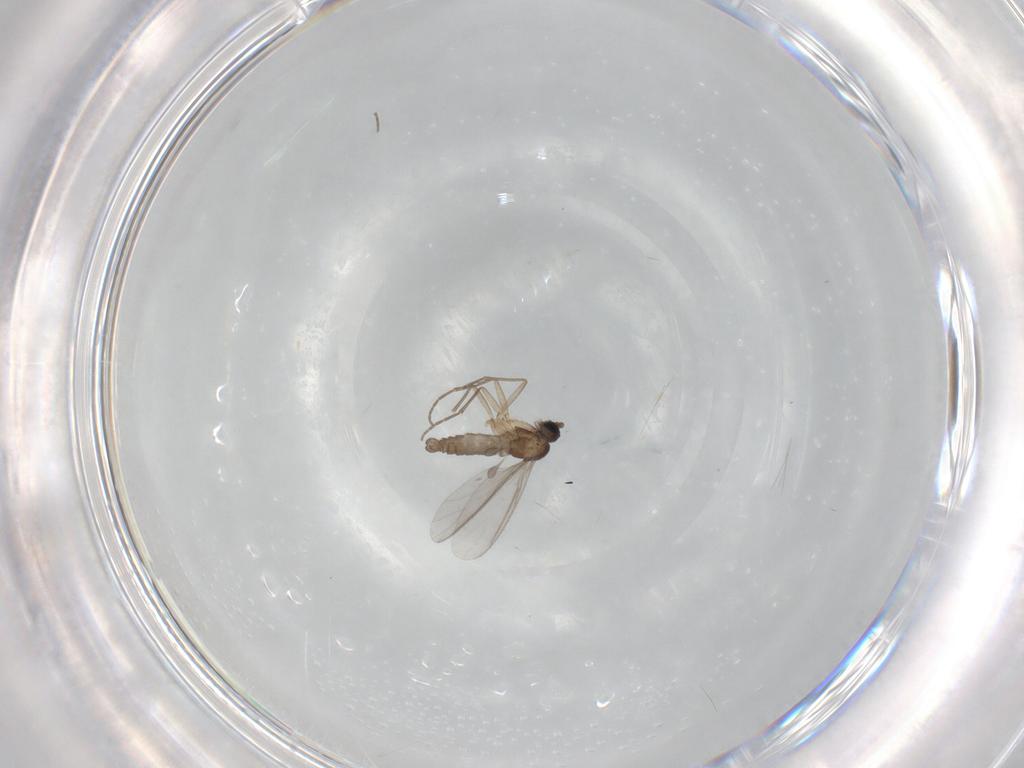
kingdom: Animalia
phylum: Arthropoda
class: Insecta
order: Diptera
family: Sciaridae
